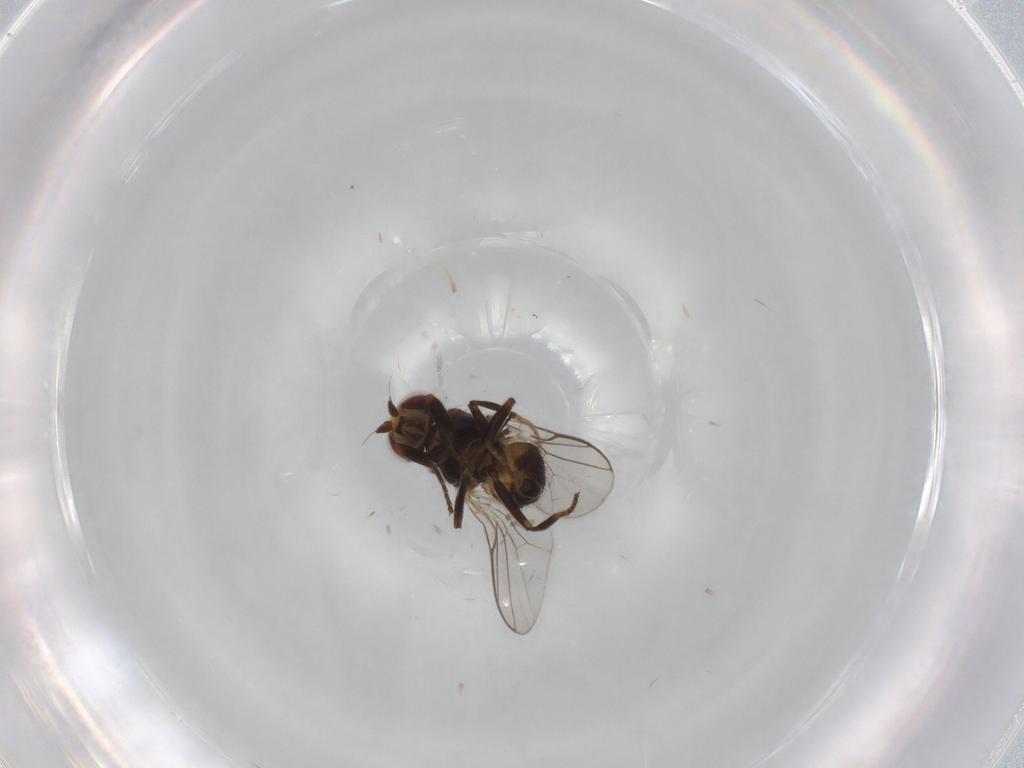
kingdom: Animalia
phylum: Arthropoda
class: Insecta
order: Diptera
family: Chloropidae
